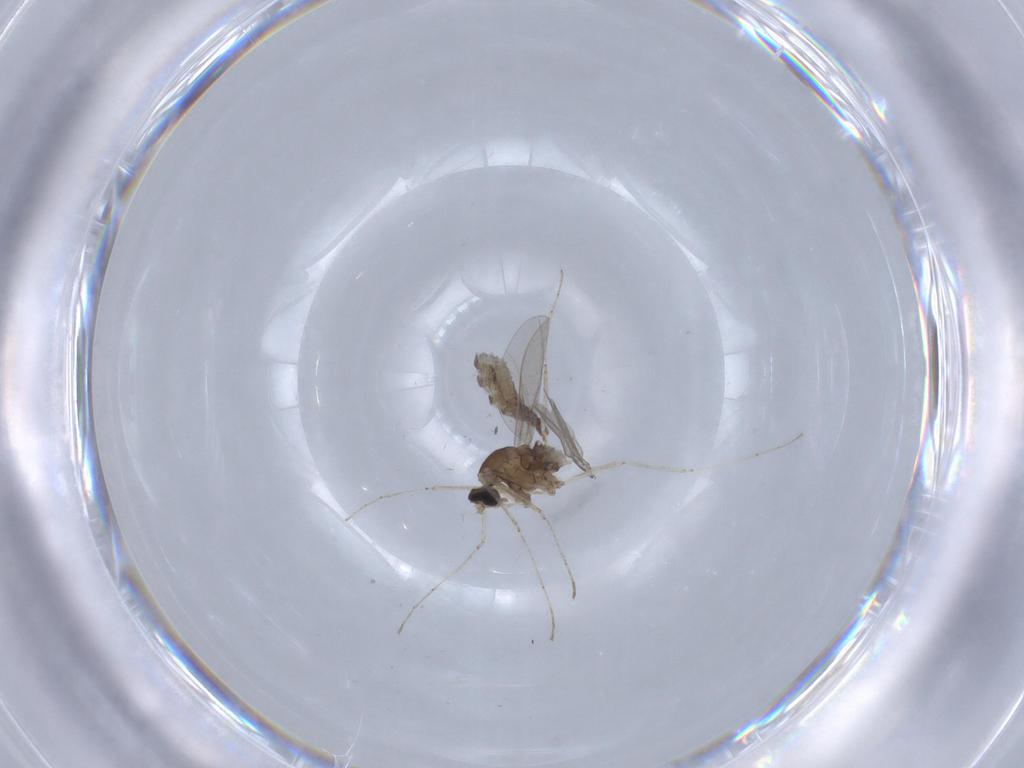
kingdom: Animalia
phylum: Arthropoda
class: Insecta
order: Diptera
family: Cecidomyiidae
